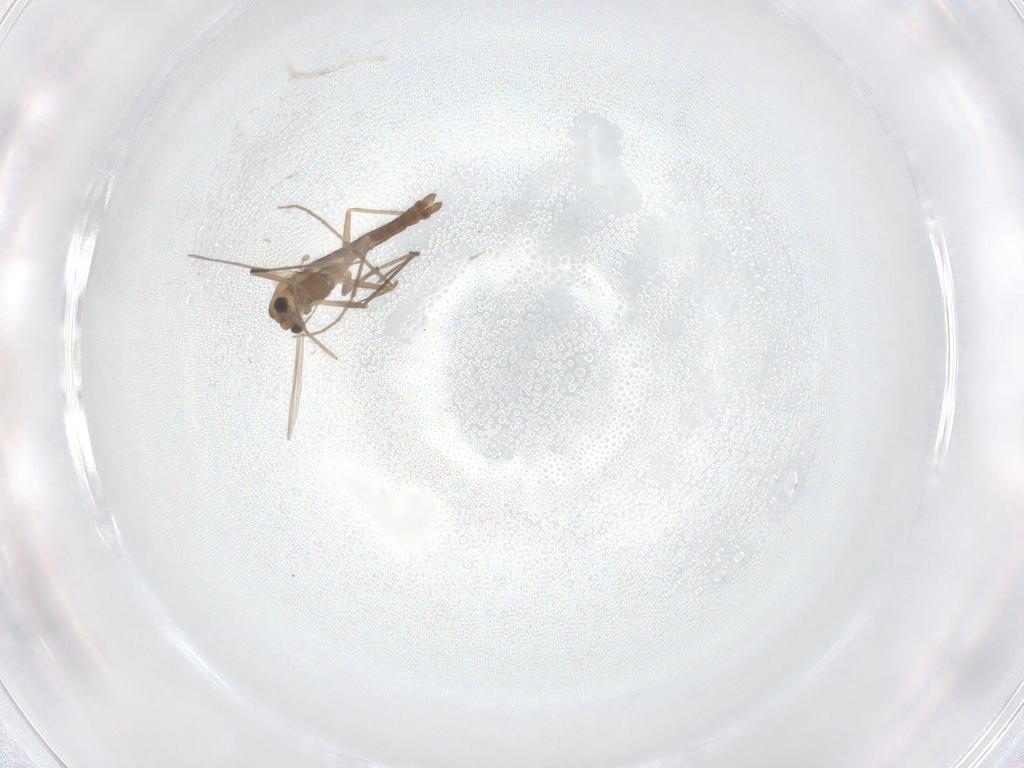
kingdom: Animalia
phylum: Arthropoda
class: Insecta
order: Diptera
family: Chironomidae
